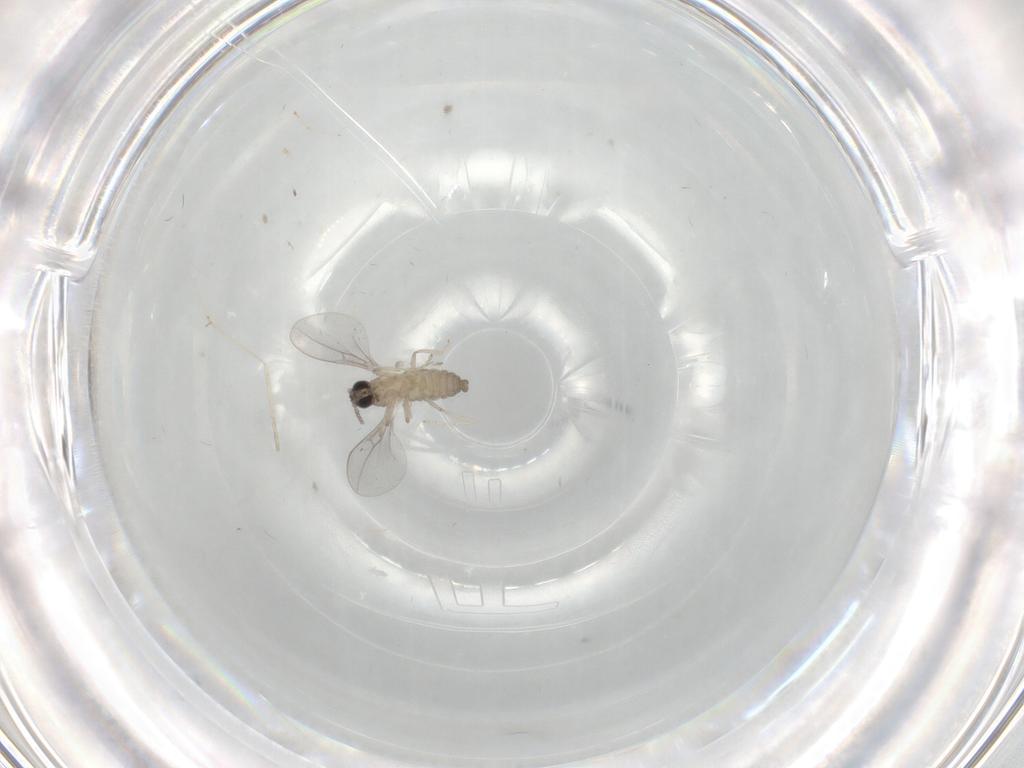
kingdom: Animalia
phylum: Arthropoda
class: Insecta
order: Diptera
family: Cecidomyiidae
